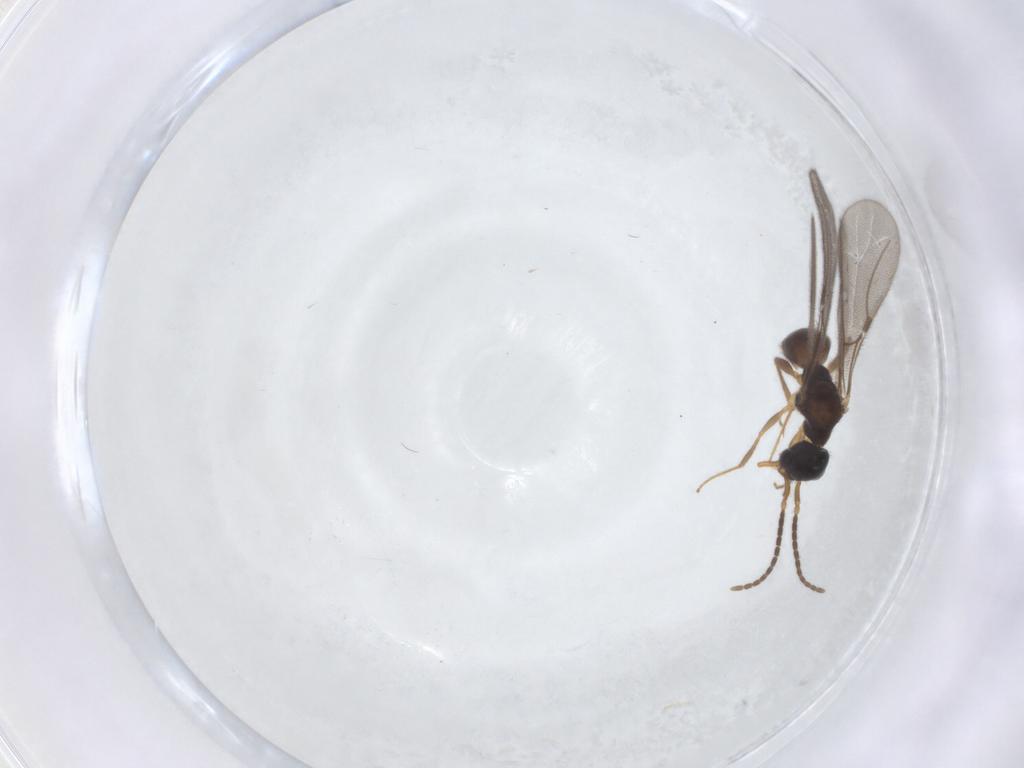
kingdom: Animalia
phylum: Arthropoda
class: Insecta
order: Hymenoptera
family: Bethylidae
